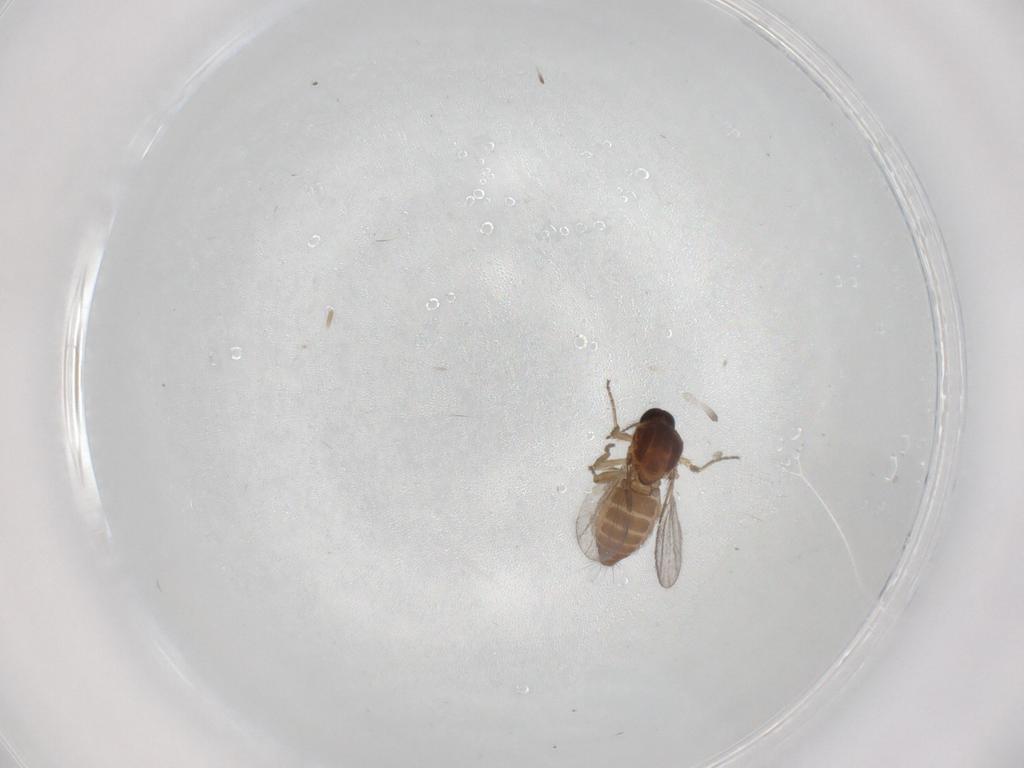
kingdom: Animalia
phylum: Arthropoda
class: Insecta
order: Diptera
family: Ceratopogonidae
